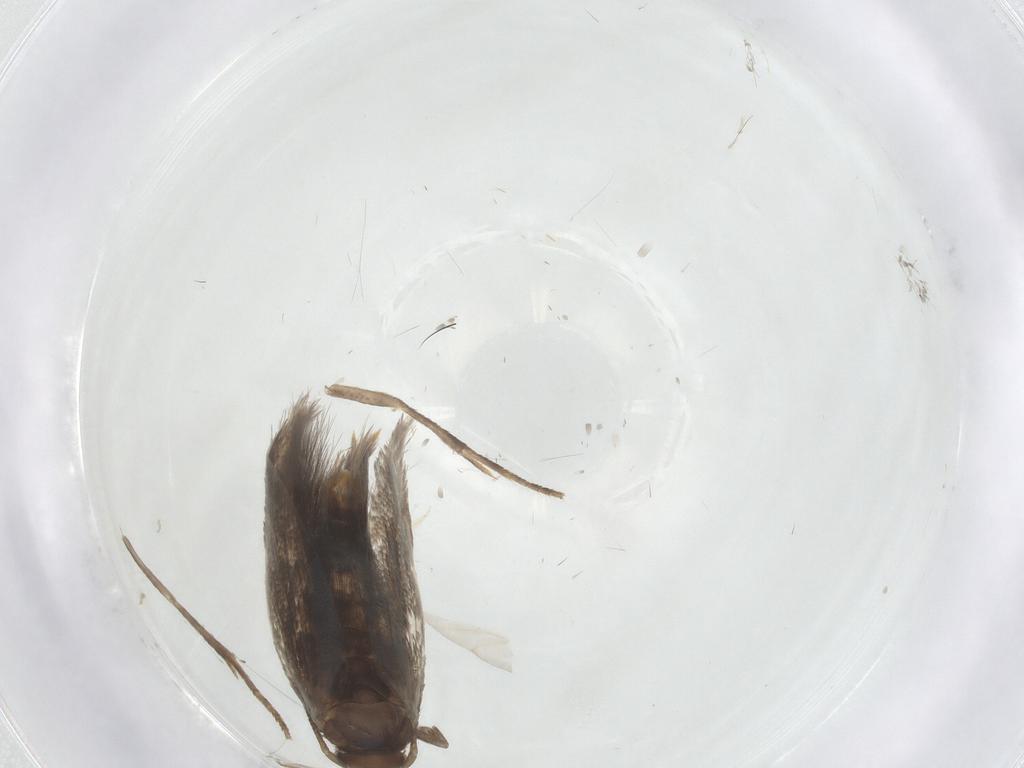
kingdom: Animalia
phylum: Arthropoda
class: Insecta
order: Lepidoptera
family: Elachistidae
